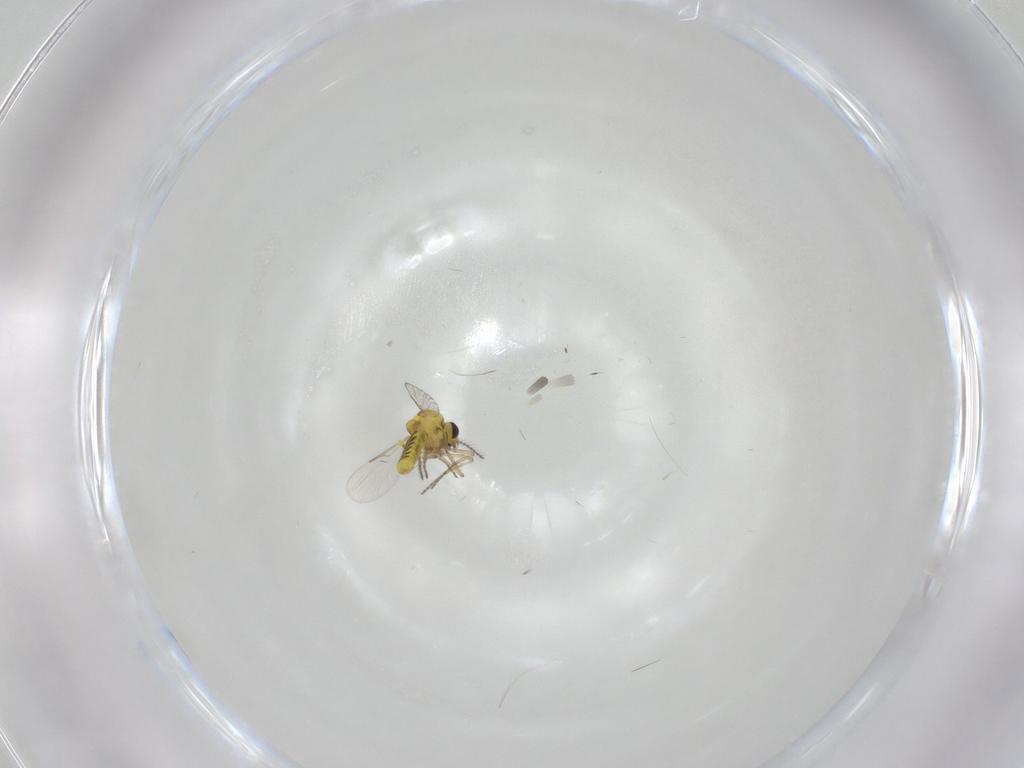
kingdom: Animalia
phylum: Arthropoda
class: Insecta
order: Diptera
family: Ceratopogonidae
